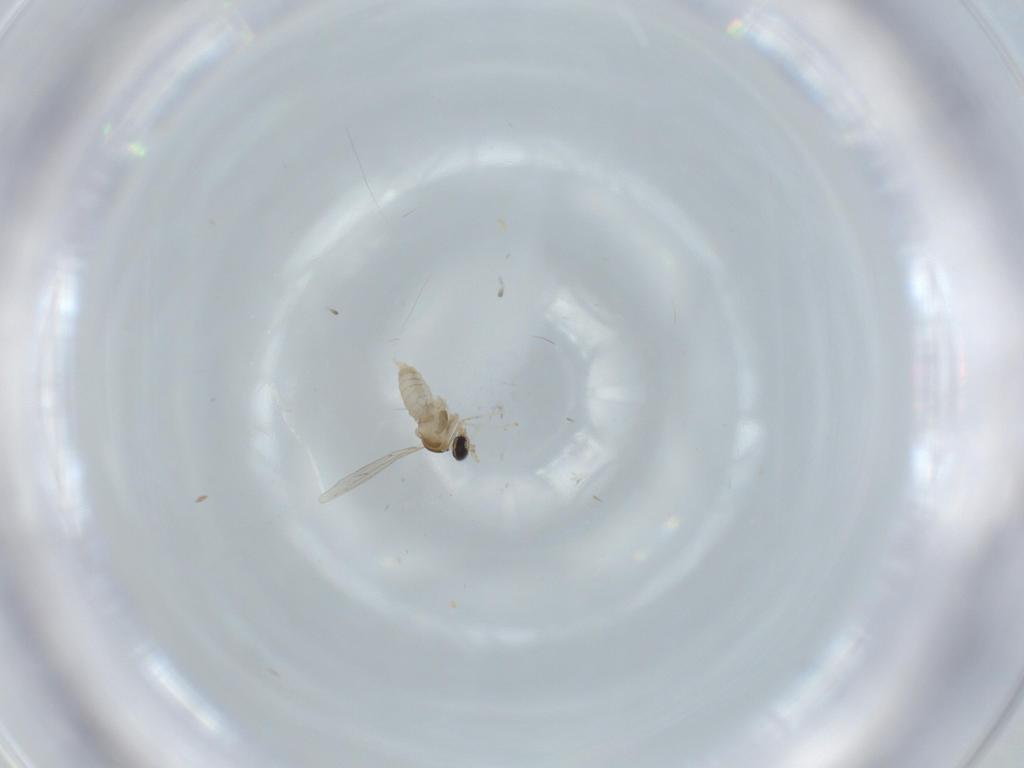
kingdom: Animalia
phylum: Arthropoda
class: Insecta
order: Diptera
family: Cecidomyiidae
